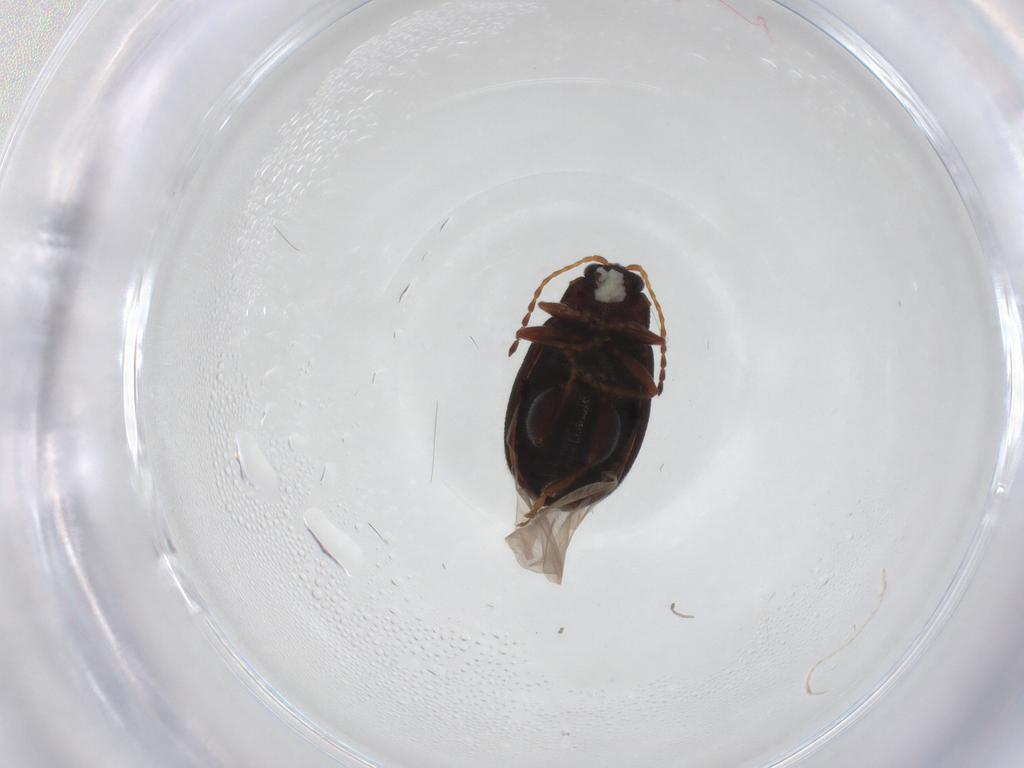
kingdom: Animalia
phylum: Arthropoda
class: Insecta
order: Coleoptera
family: Chrysomelidae
